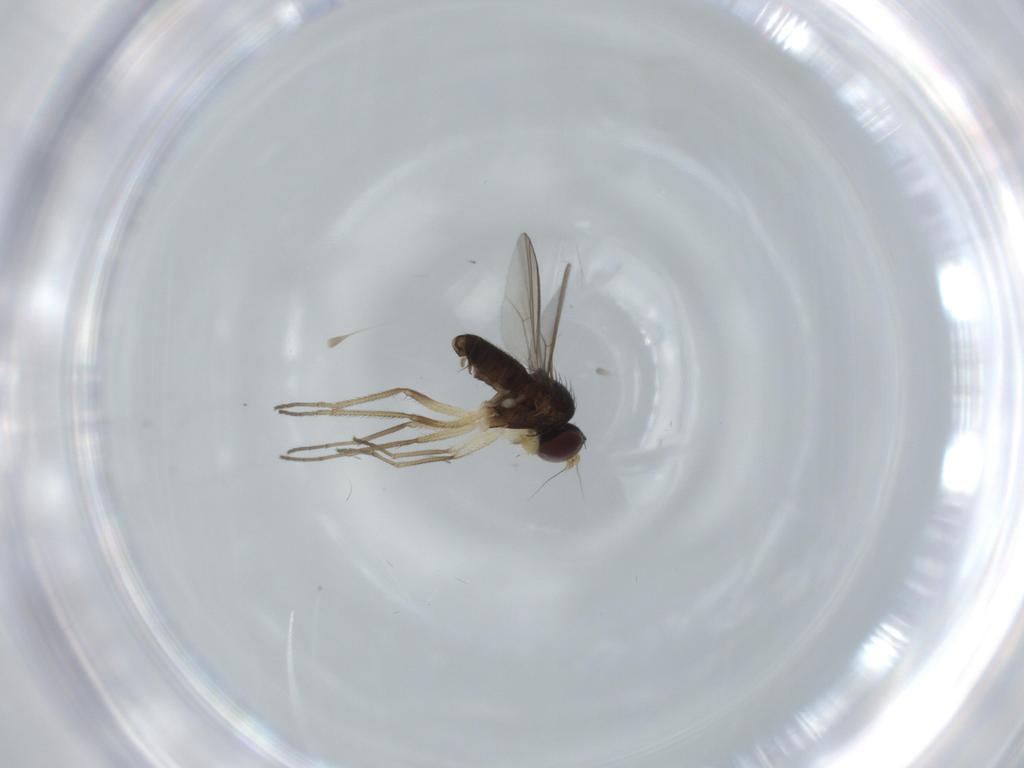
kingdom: Animalia
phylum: Arthropoda
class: Insecta
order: Diptera
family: Dolichopodidae
